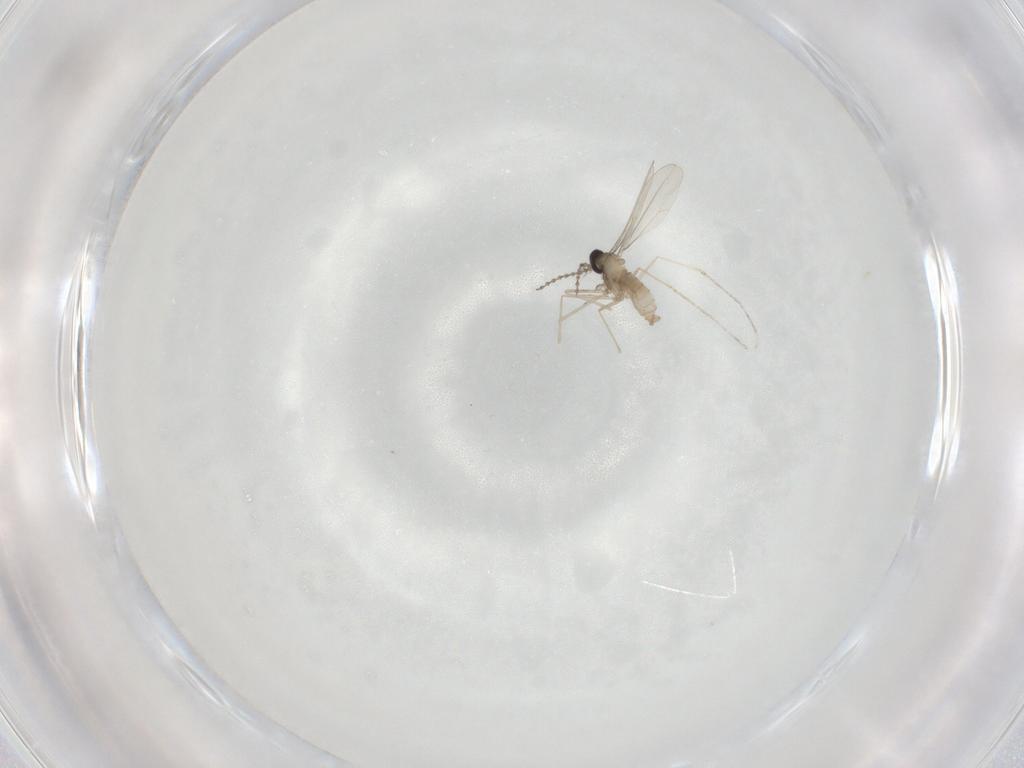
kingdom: Animalia
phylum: Arthropoda
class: Insecta
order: Diptera
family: Cecidomyiidae
